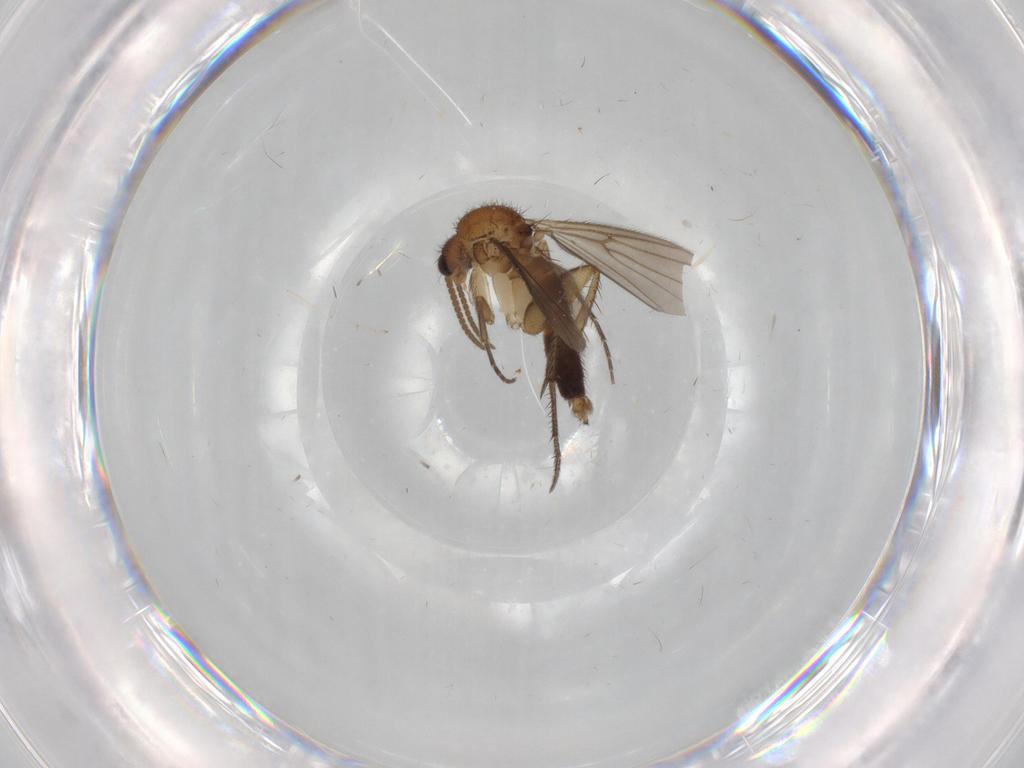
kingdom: Animalia
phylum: Arthropoda
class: Insecta
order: Diptera
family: Mycetophilidae
